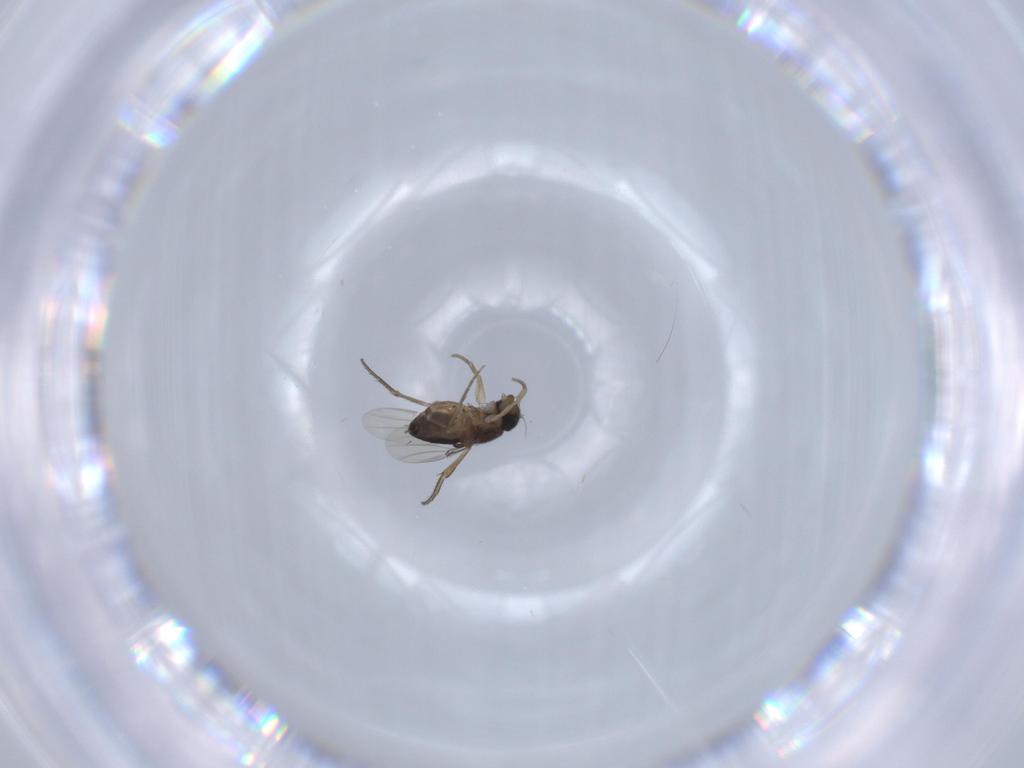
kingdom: Animalia
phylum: Arthropoda
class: Insecta
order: Diptera
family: Phoridae
